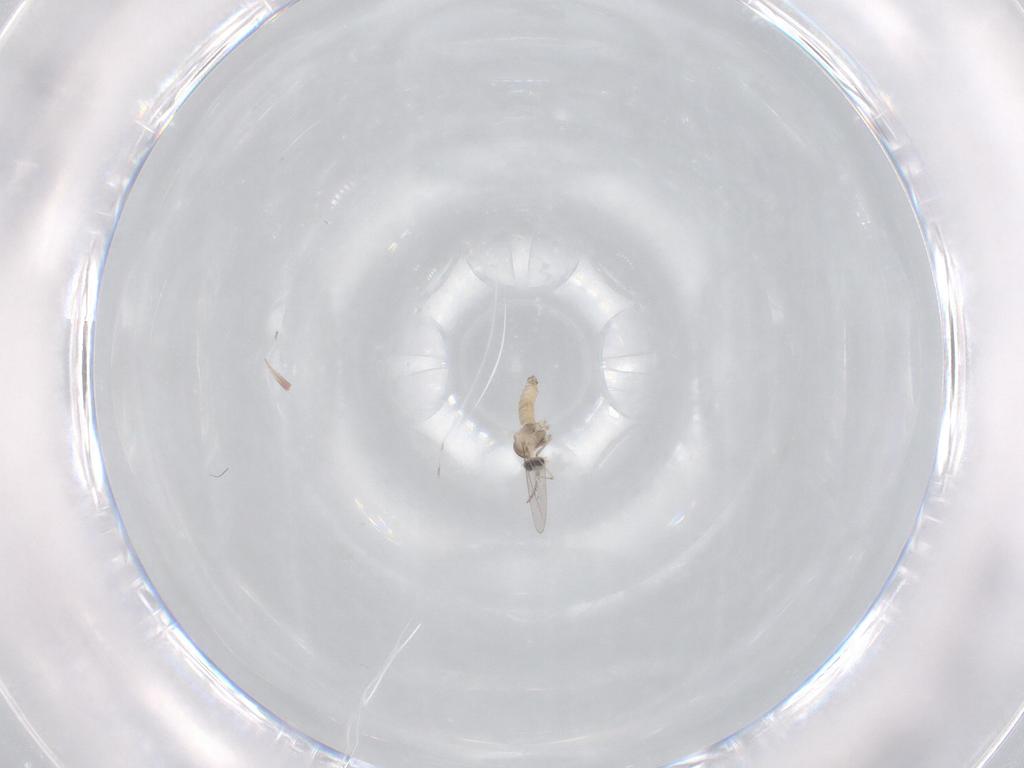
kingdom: Animalia
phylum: Arthropoda
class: Insecta
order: Diptera
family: Cecidomyiidae
